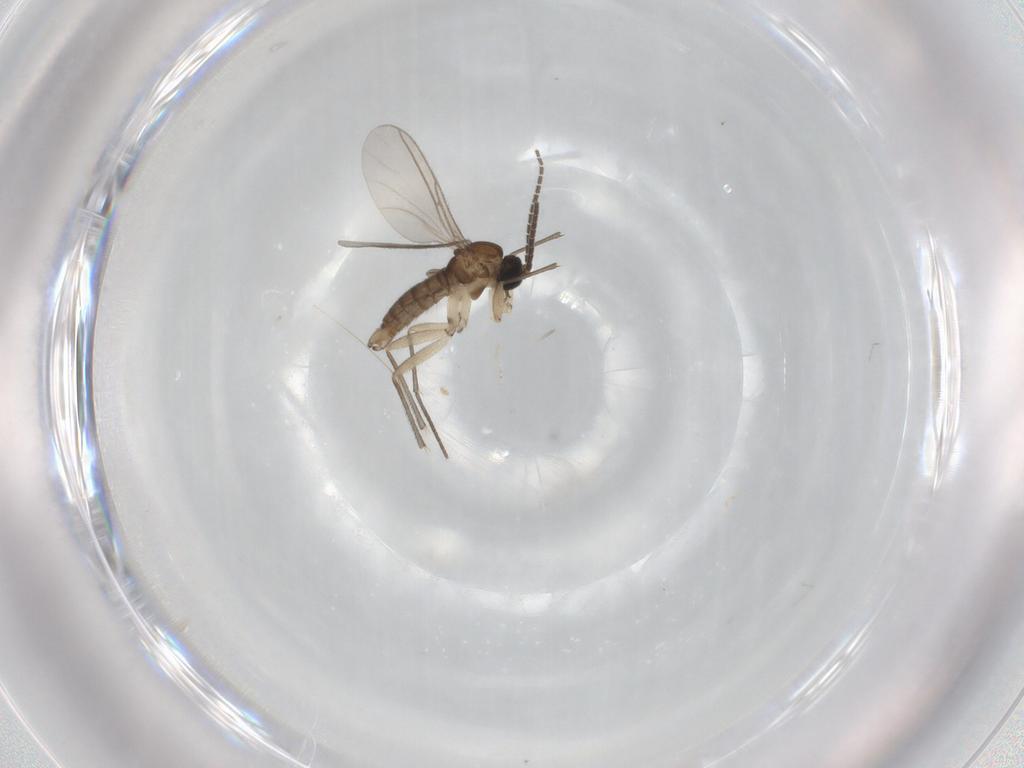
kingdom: Animalia
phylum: Arthropoda
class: Insecta
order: Diptera
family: Sciaridae
